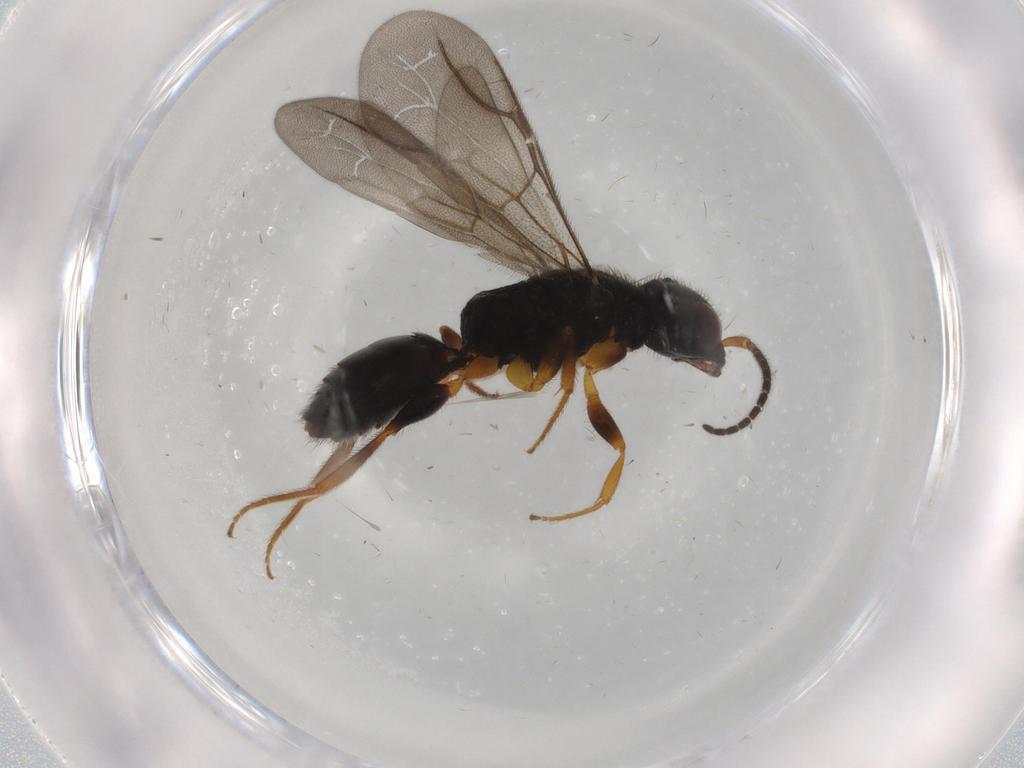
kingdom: Animalia
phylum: Arthropoda
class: Insecta
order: Hymenoptera
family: Bethylidae
